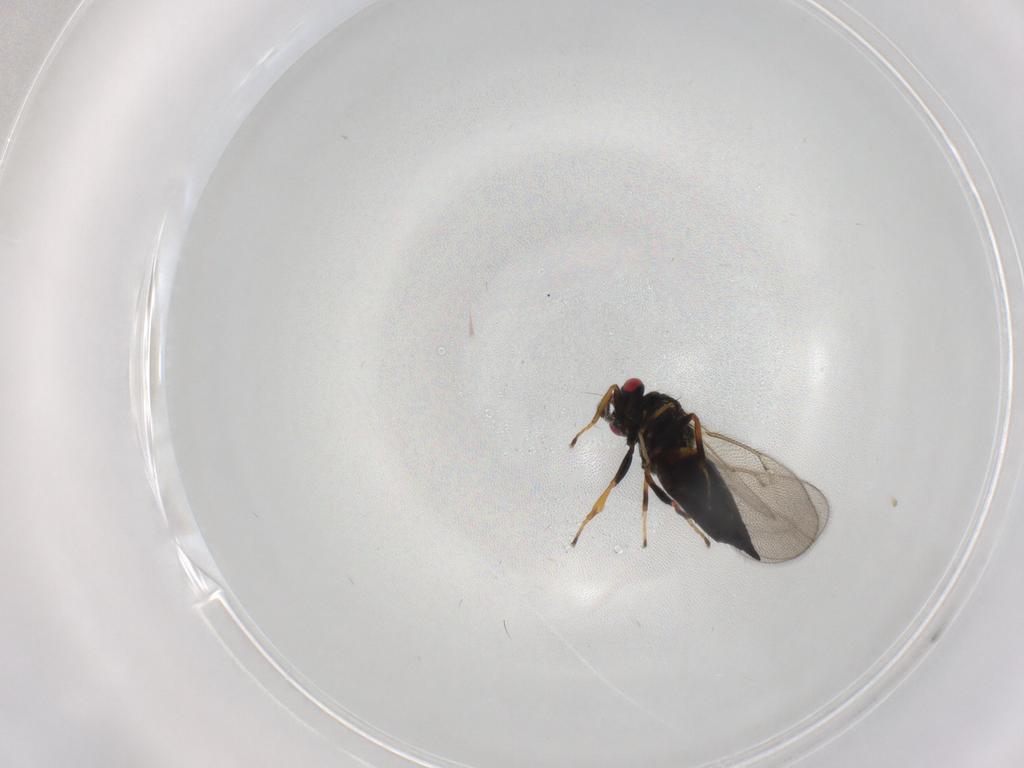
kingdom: Animalia
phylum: Arthropoda
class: Insecta
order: Hymenoptera
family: Eulophidae
